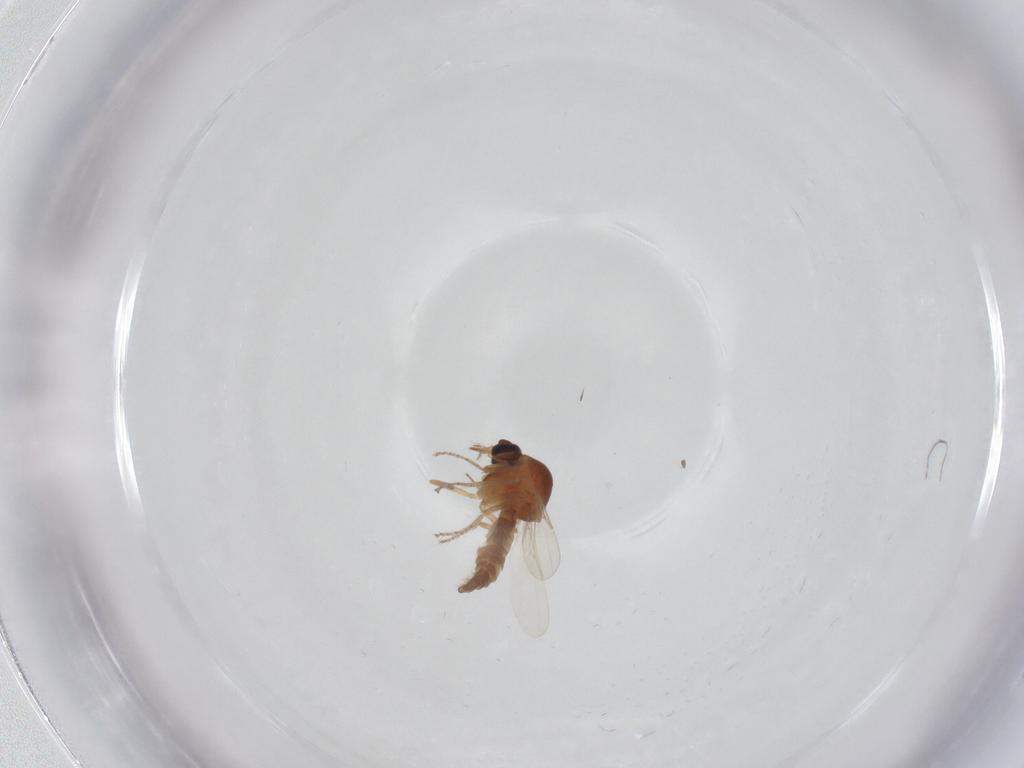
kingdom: Animalia
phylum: Arthropoda
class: Insecta
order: Diptera
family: Ceratopogonidae
